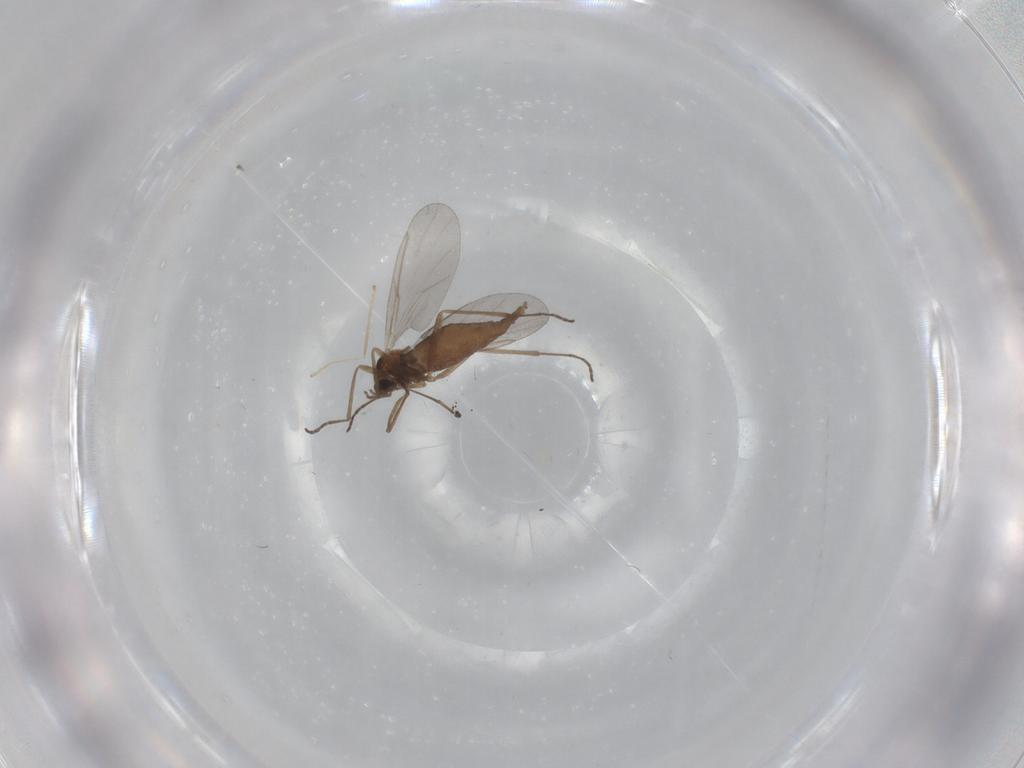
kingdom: Animalia
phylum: Arthropoda
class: Insecta
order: Diptera
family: Cecidomyiidae
